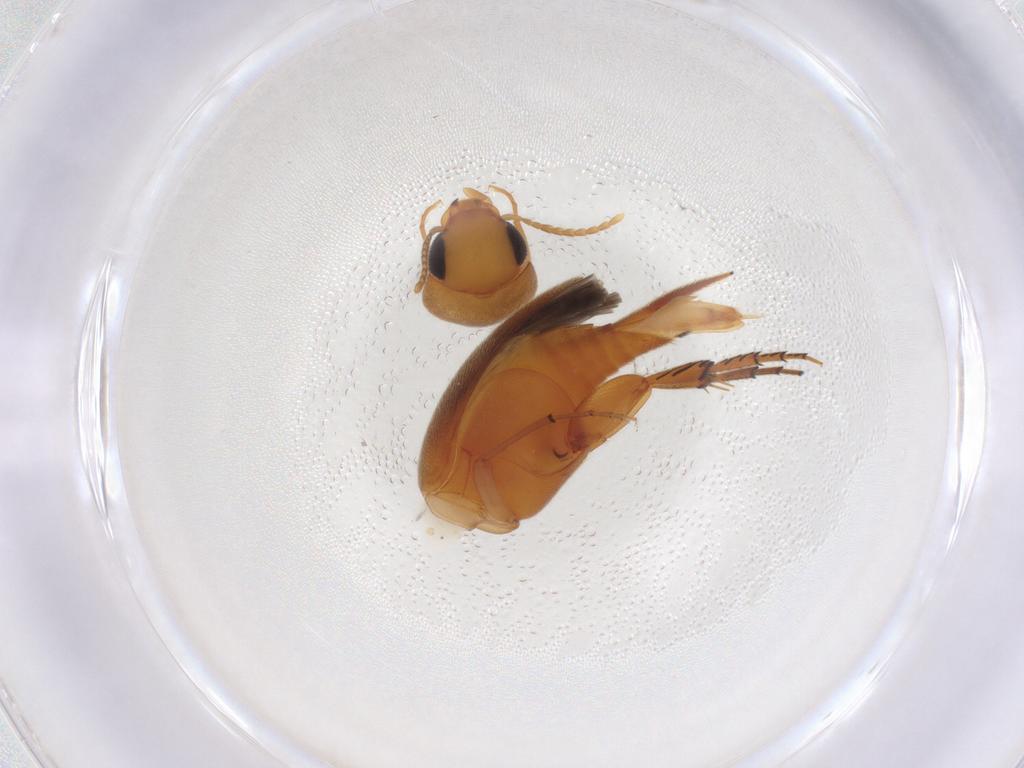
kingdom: Animalia
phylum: Arthropoda
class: Insecta
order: Coleoptera
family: Mordellidae
